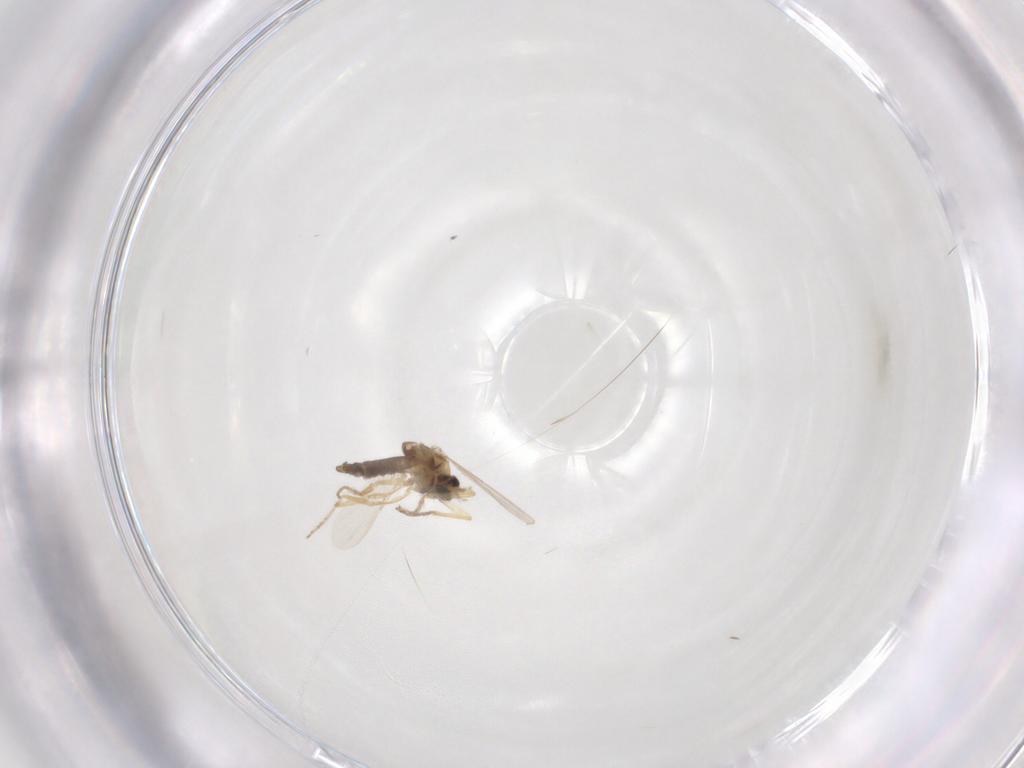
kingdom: Animalia
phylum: Arthropoda
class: Insecta
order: Diptera
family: Ceratopogonidae
